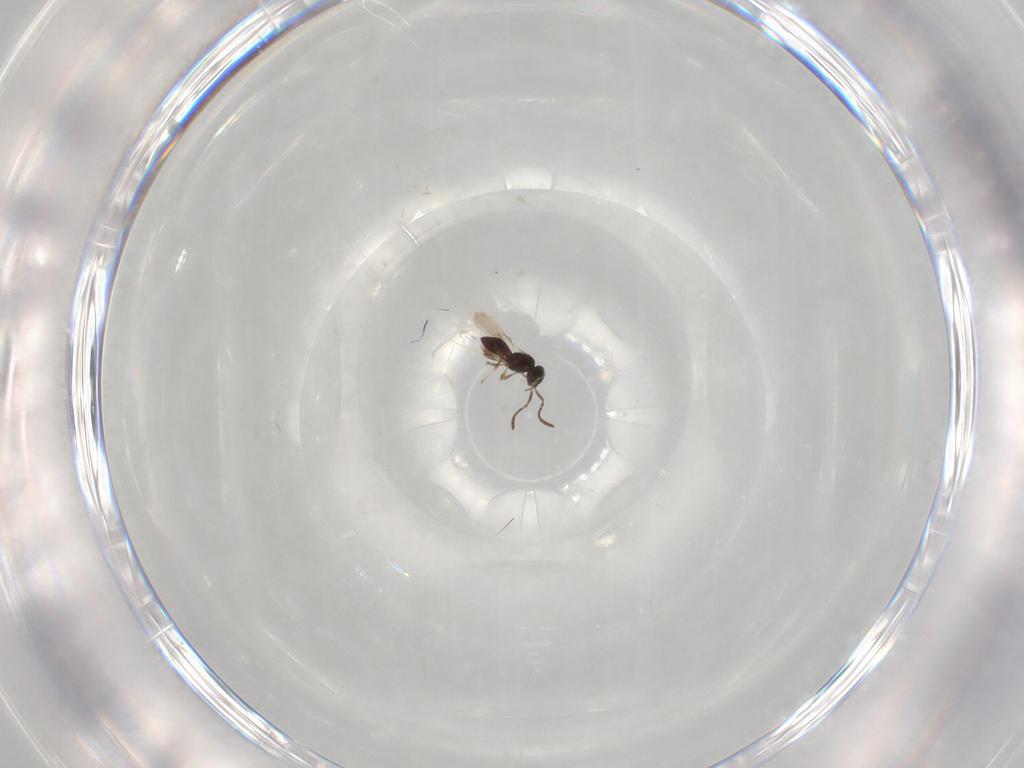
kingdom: Animalia
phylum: Arthropoda
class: Insecta
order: Hymenoptera
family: Scelionidae
